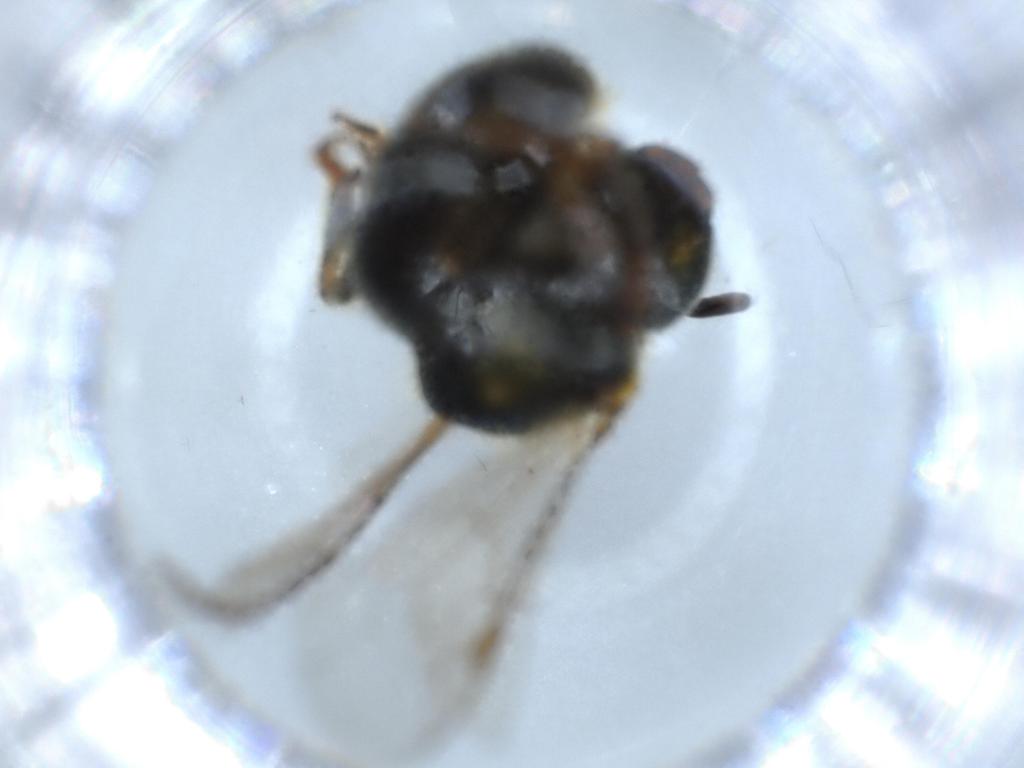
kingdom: Animalia
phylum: Arthropoda
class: Insecta
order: Hymenoptera
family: Halictidae
